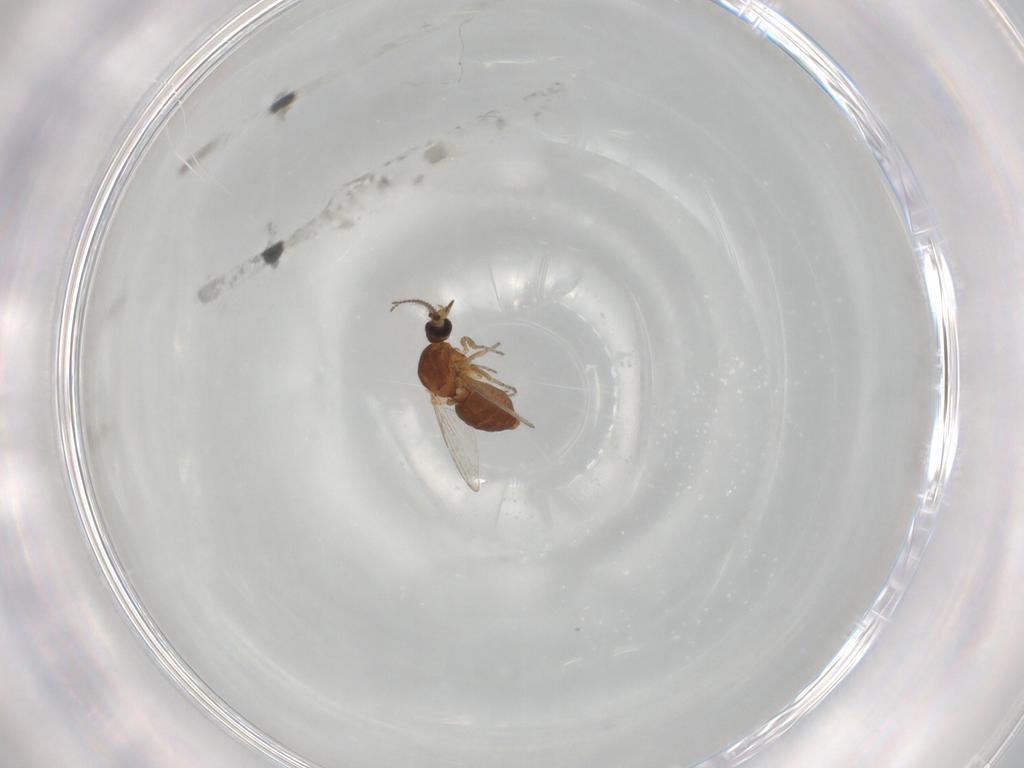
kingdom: Animalia
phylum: Arthropoda
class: Insecta
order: Diptera
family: Ceratopogonidae
